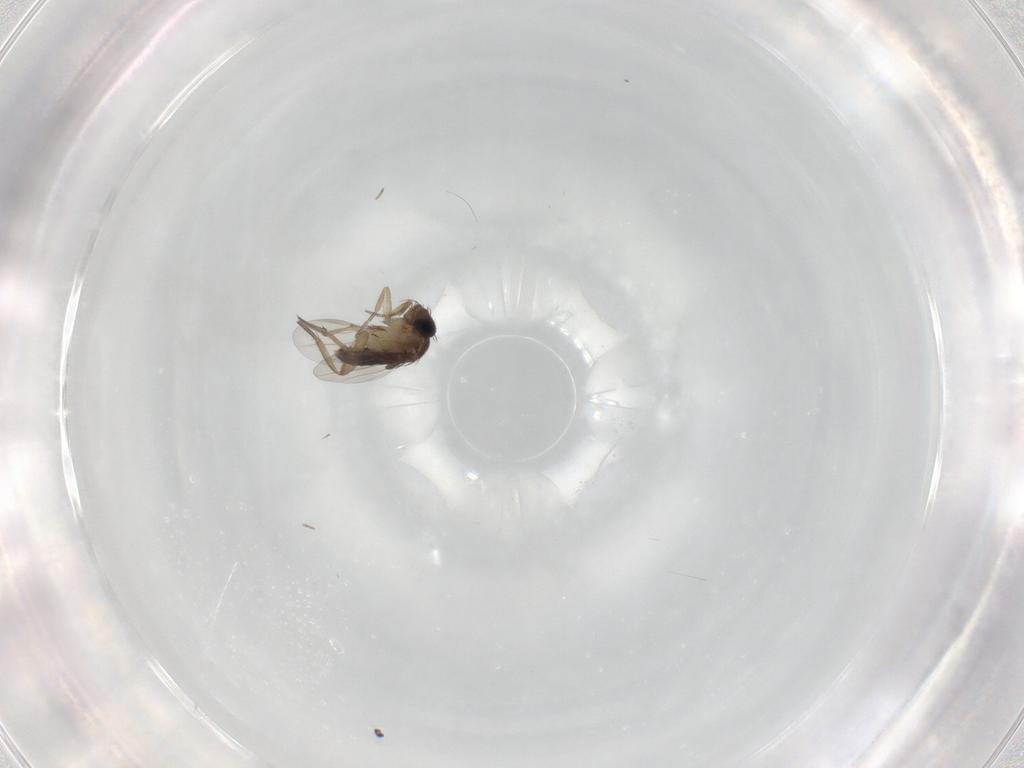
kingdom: Animalia
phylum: Arthropoda
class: Insecta
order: Diptera
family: Cecidomyiidae
